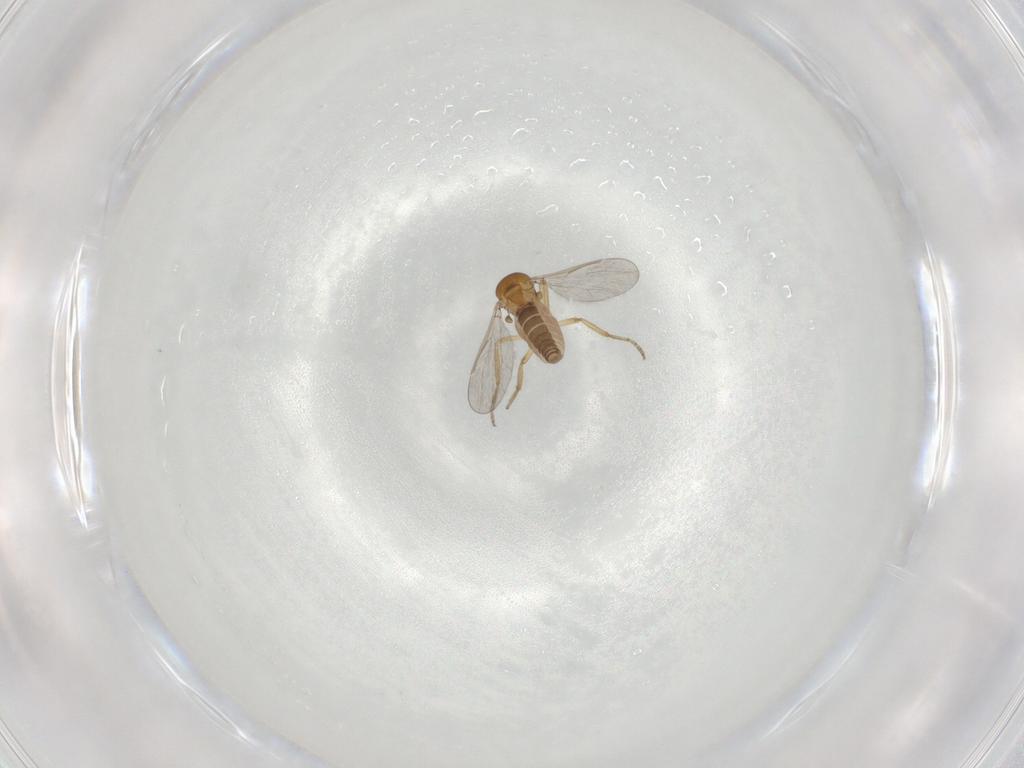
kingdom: Animalia
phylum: Arthropoda
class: Insecta
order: Diptera
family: Ceratopogonidae
